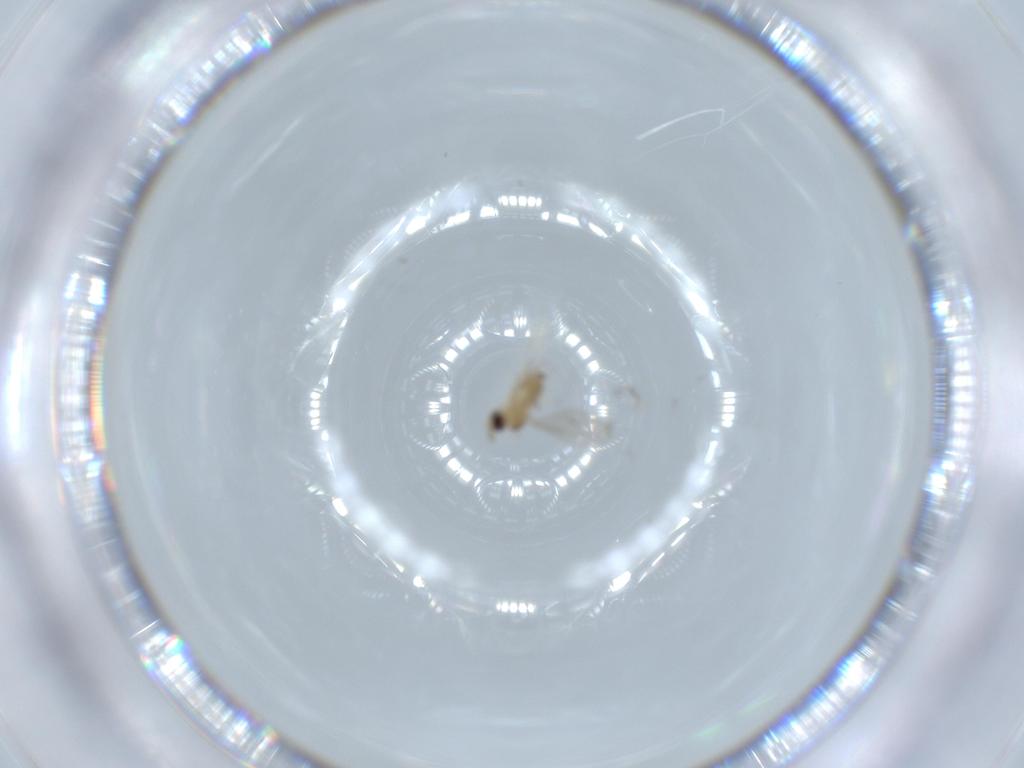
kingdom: Animalia
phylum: Arthropoda
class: Insecta
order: Diptera
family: Cecidomyiidae
